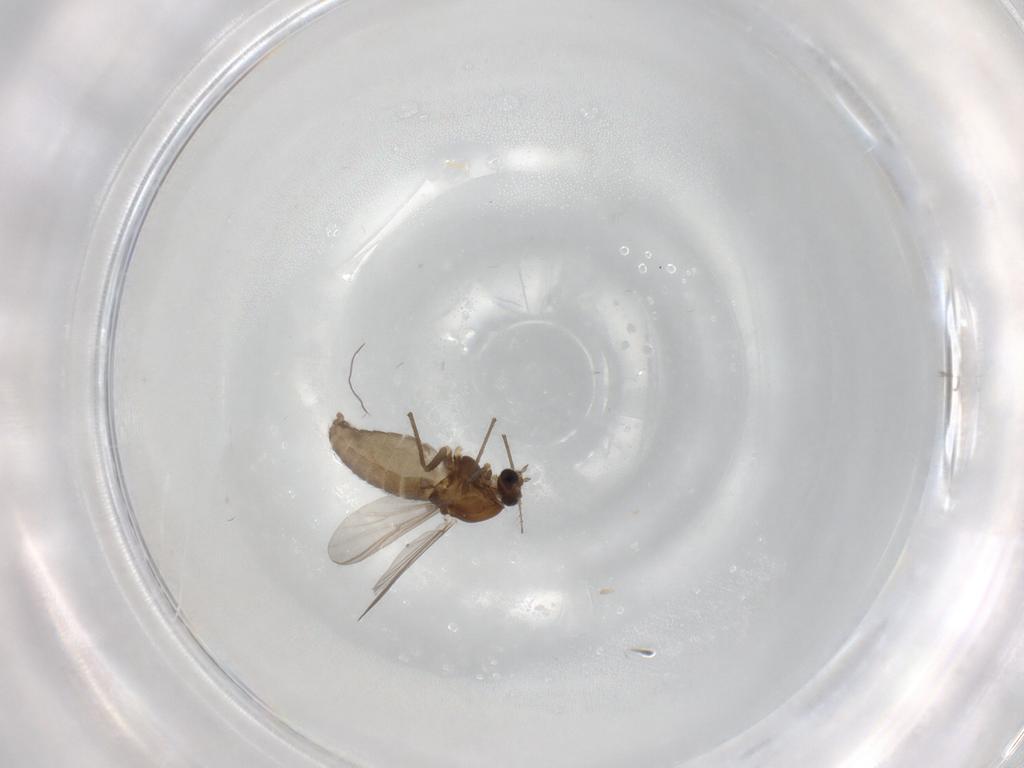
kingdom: Animalia
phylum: Arthropoda
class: Insecta
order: Diptera
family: Chironomidae
